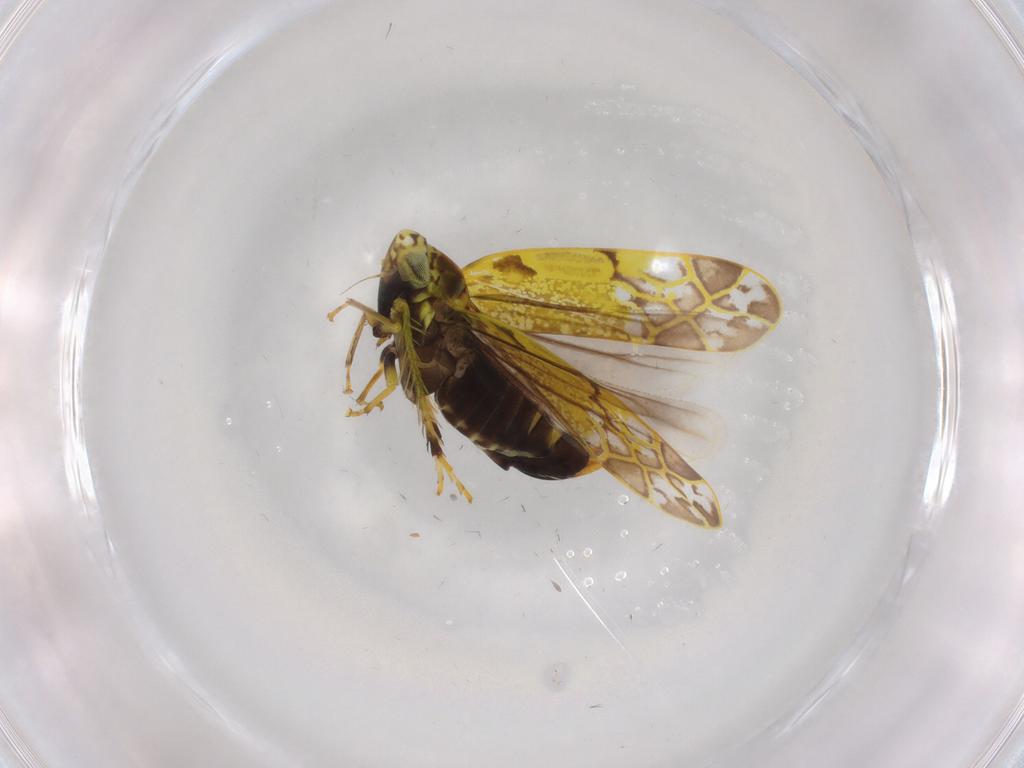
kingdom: Animalia
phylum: Arthropoda
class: Insecta
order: Hemiptera
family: Cicadellidae
